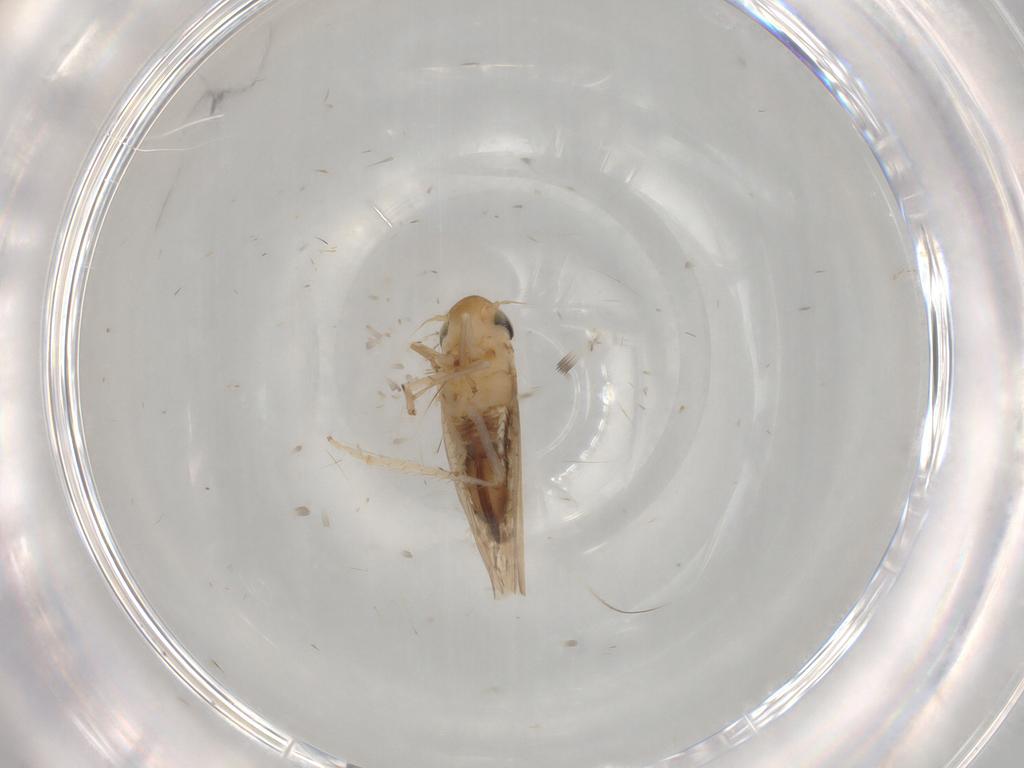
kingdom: Animalia
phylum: Arthropoda
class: Insecta
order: Hemiptera
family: Cicadellidae
